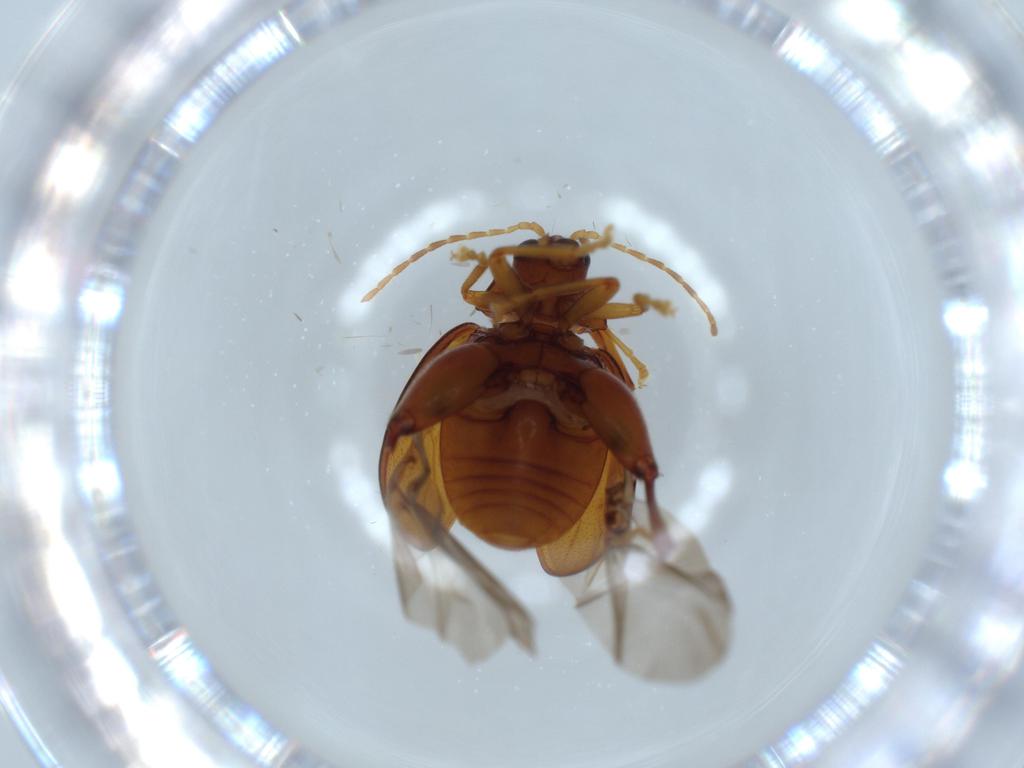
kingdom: Animalia
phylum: Arthropoda
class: Insecta
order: Coleoptera
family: Chrysomelidae
